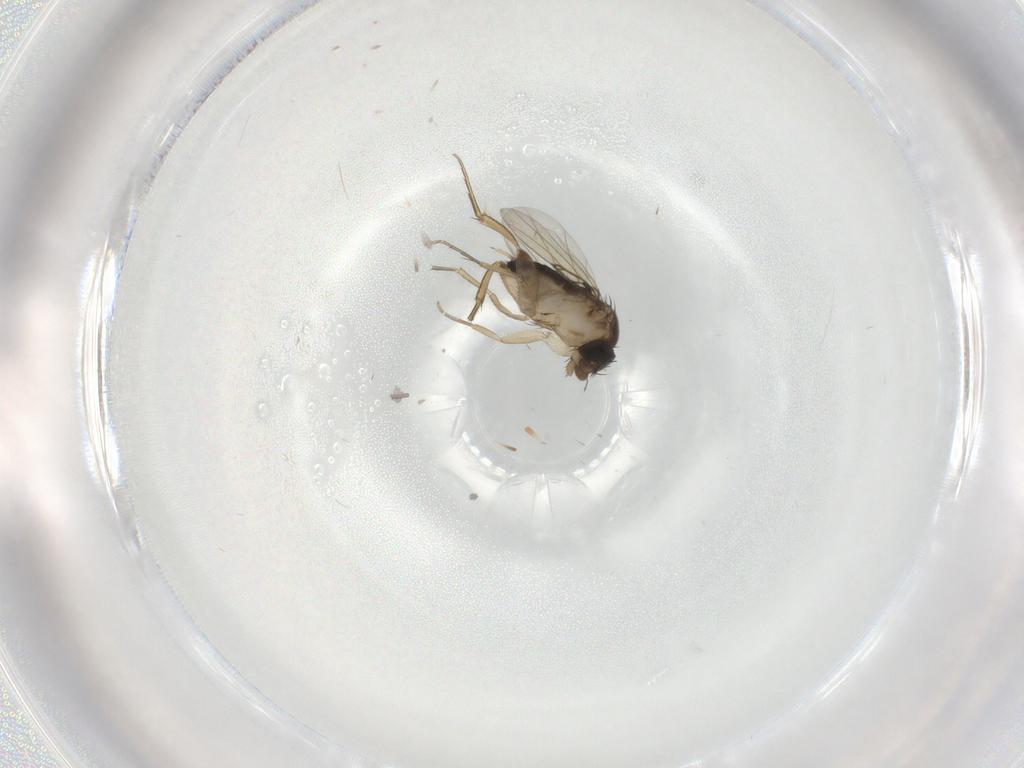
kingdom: Animalia
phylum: Arthropoda
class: Insecta
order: Diptera
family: Phoridae
